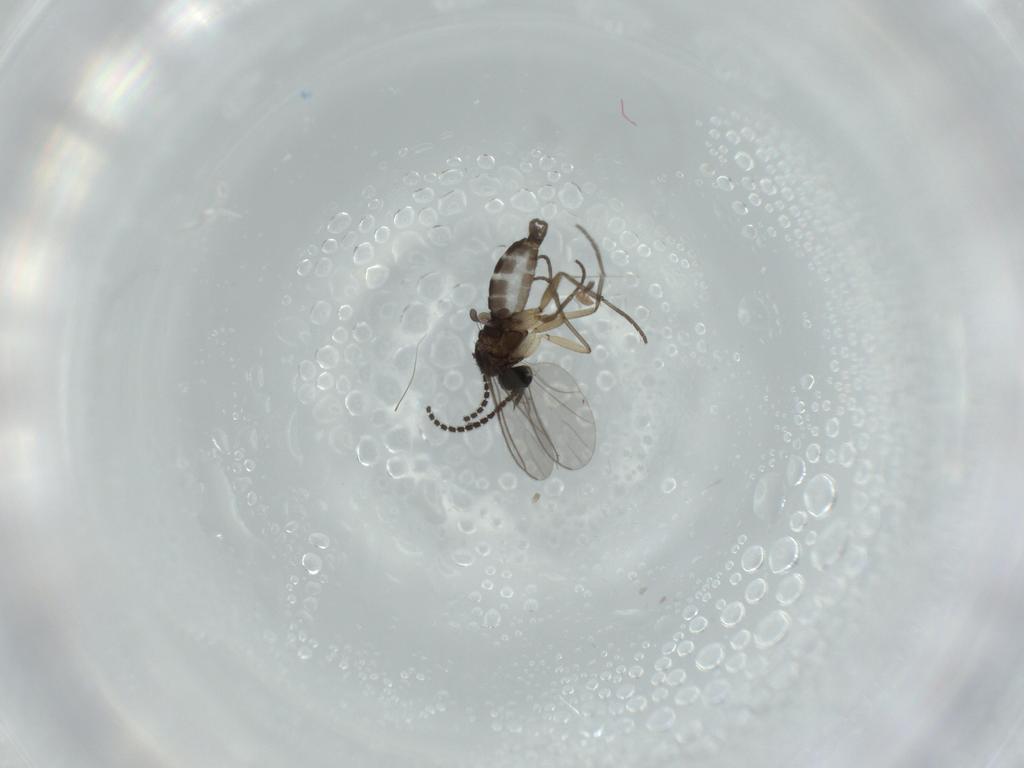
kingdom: Animalia
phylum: Arthropoda
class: Insecta
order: Diptera
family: Sciaridae
